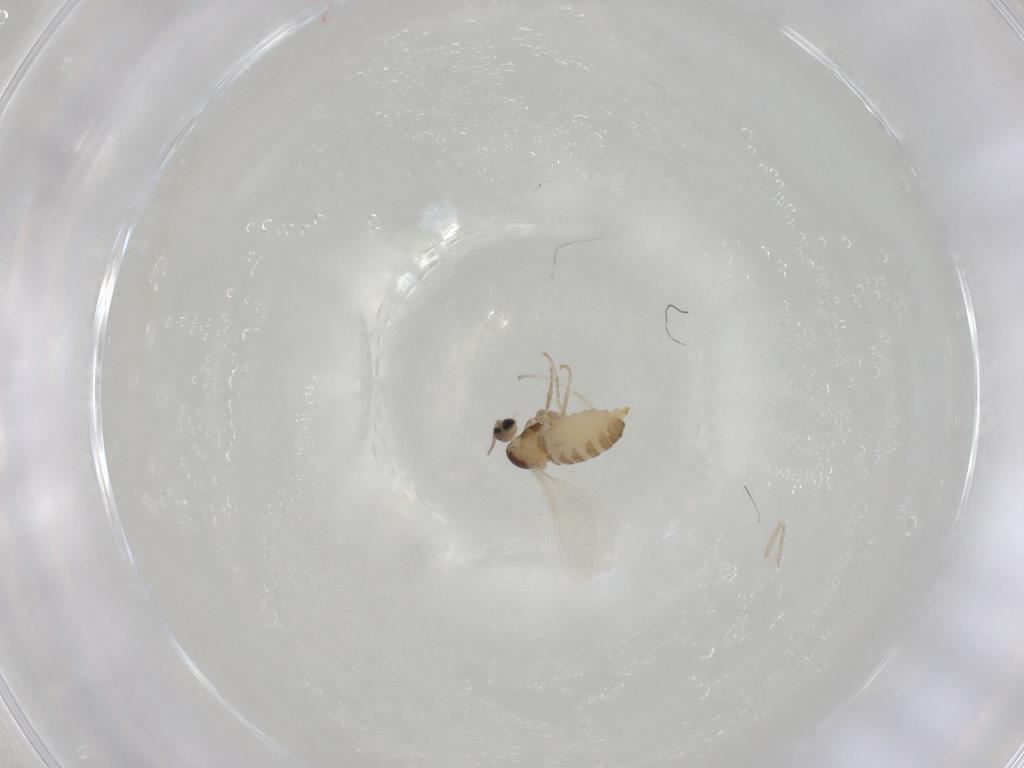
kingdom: Animalia
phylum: Arthropoda
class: Insecta
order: Diptera
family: Cecidomyiidae
